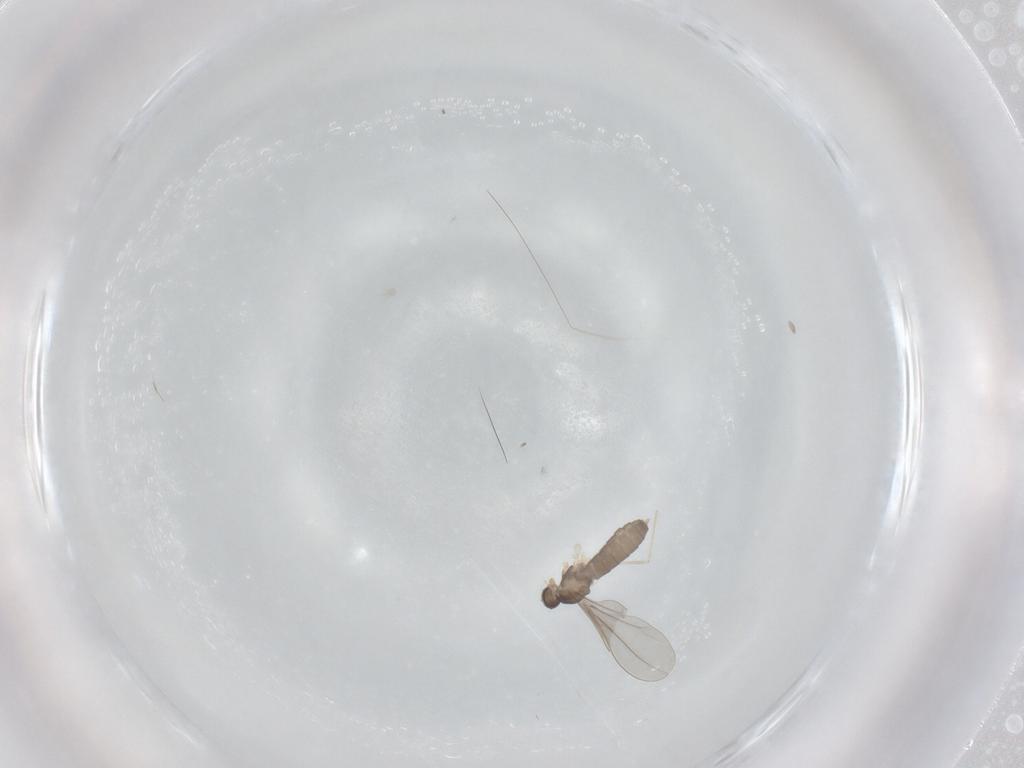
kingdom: Animalia
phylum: Arthropoda
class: Insecta
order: Diptera
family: Cecidomyiidae
